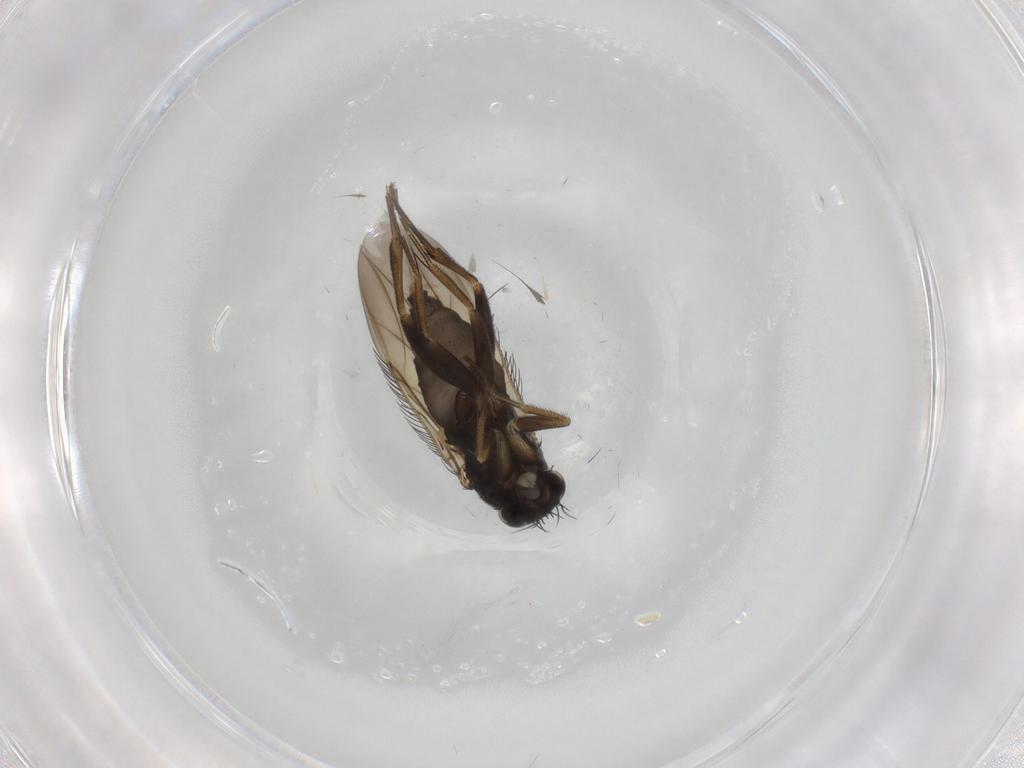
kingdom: Animalia
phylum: Arthropoda
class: Insecta
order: Diptera
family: Phoridae
